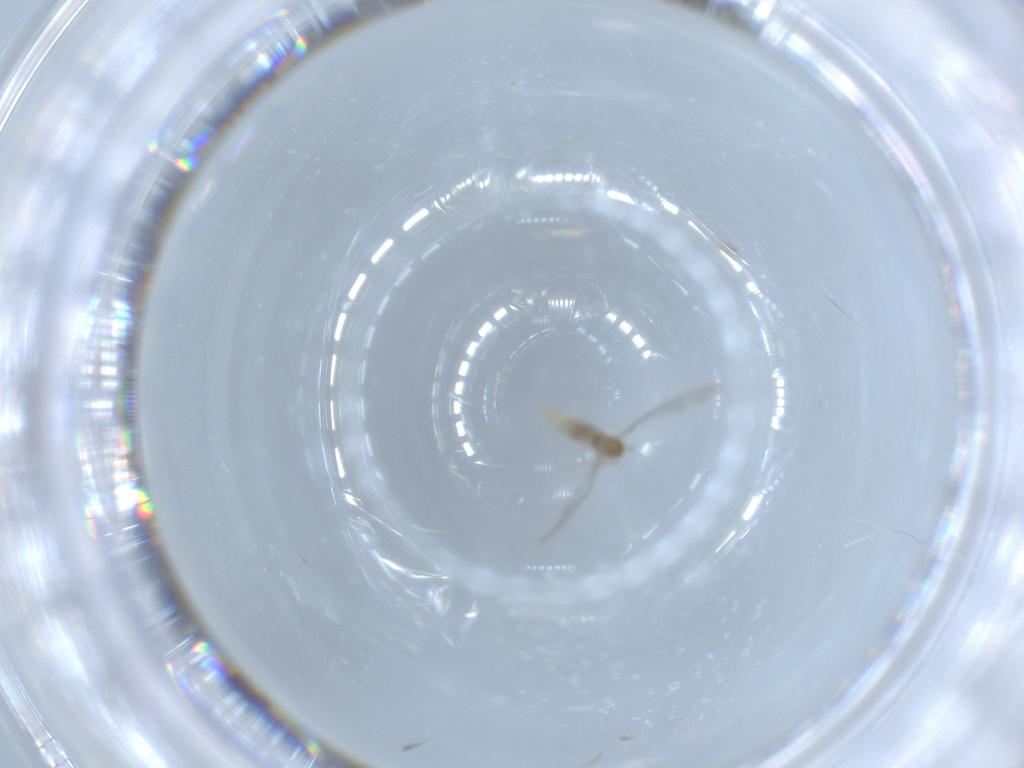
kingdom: Animalia
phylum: Arthropoda
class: Insecta
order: Diptera
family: Cecidomyiidae
